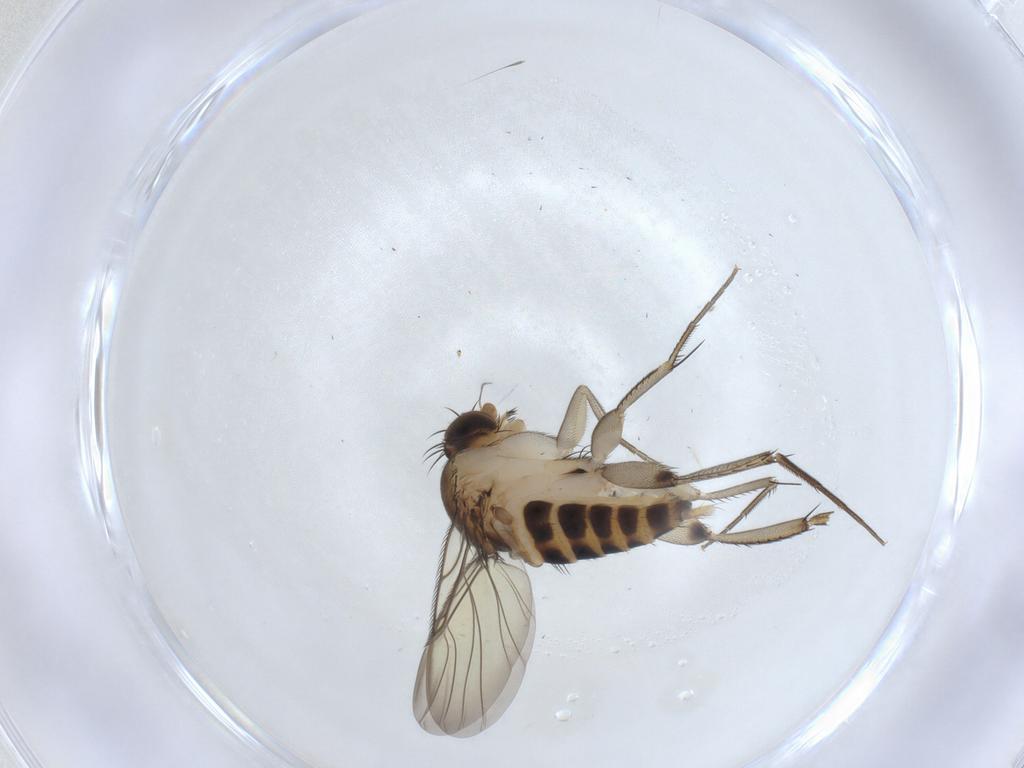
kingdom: Animalia
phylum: Arthropoda
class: Insecta
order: Diptera
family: Phoridae
